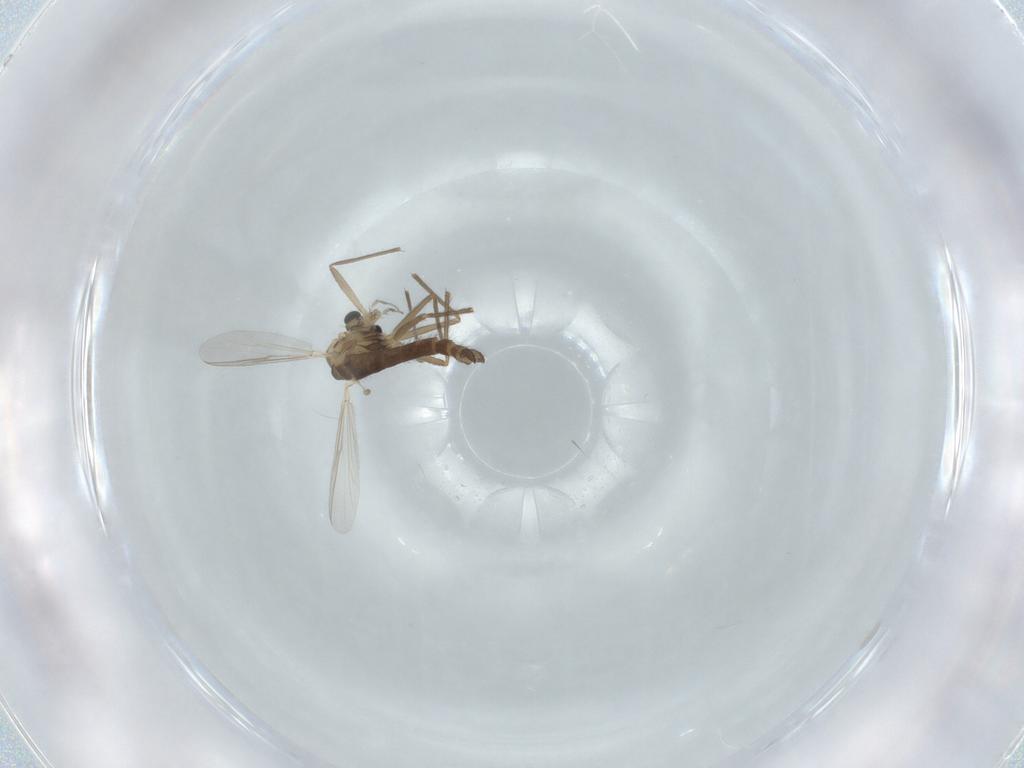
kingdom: Animalia
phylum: Arthropoda
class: Insecta
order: Diptera
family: Chironomidae
